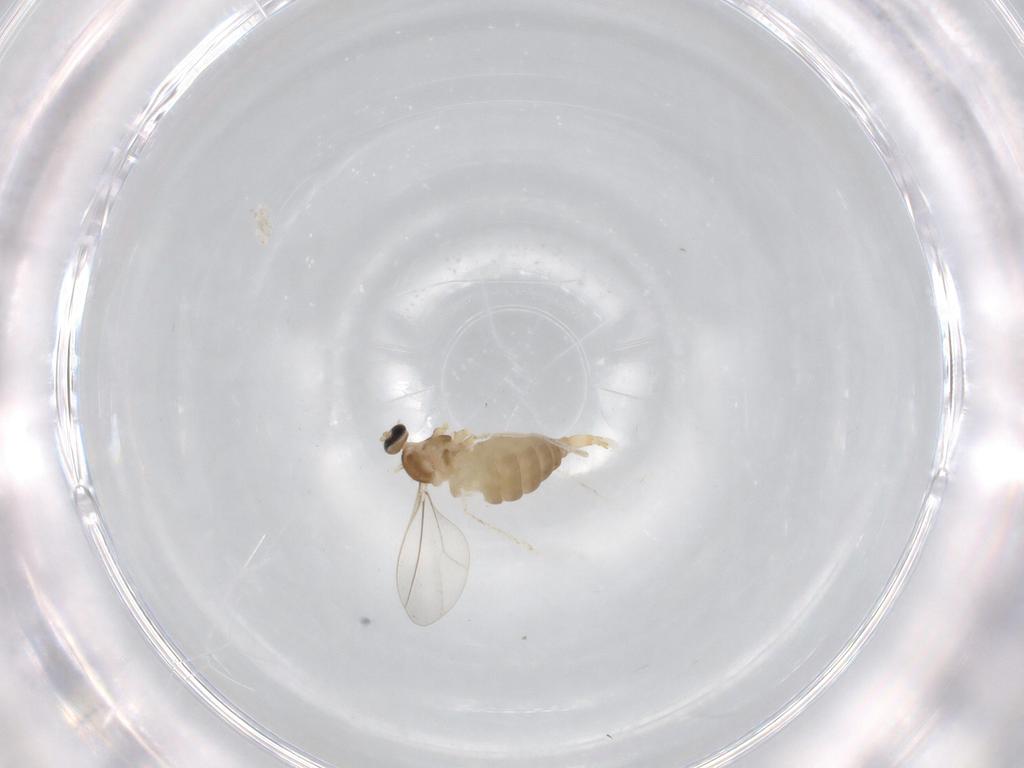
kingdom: Animalia
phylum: Arthropoda
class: Insecta
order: Diptera
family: Cecidomyiidae
